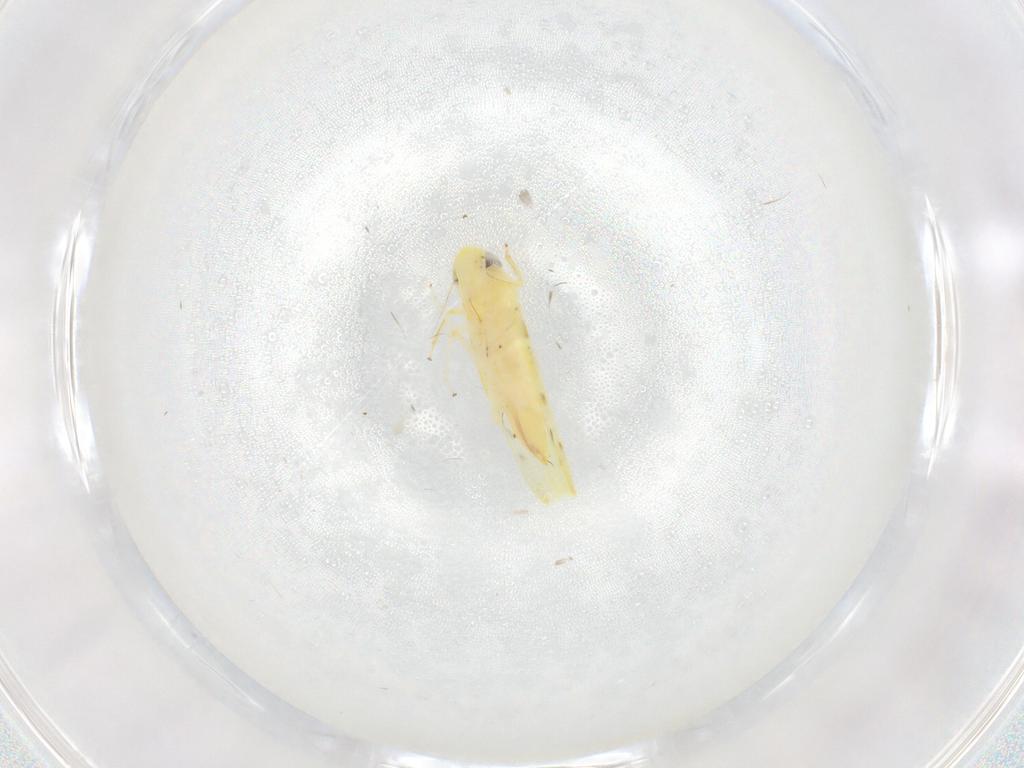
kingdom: Animalia
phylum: Arthropoda
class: Insecta
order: Hemiptera
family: Cicadellidae
